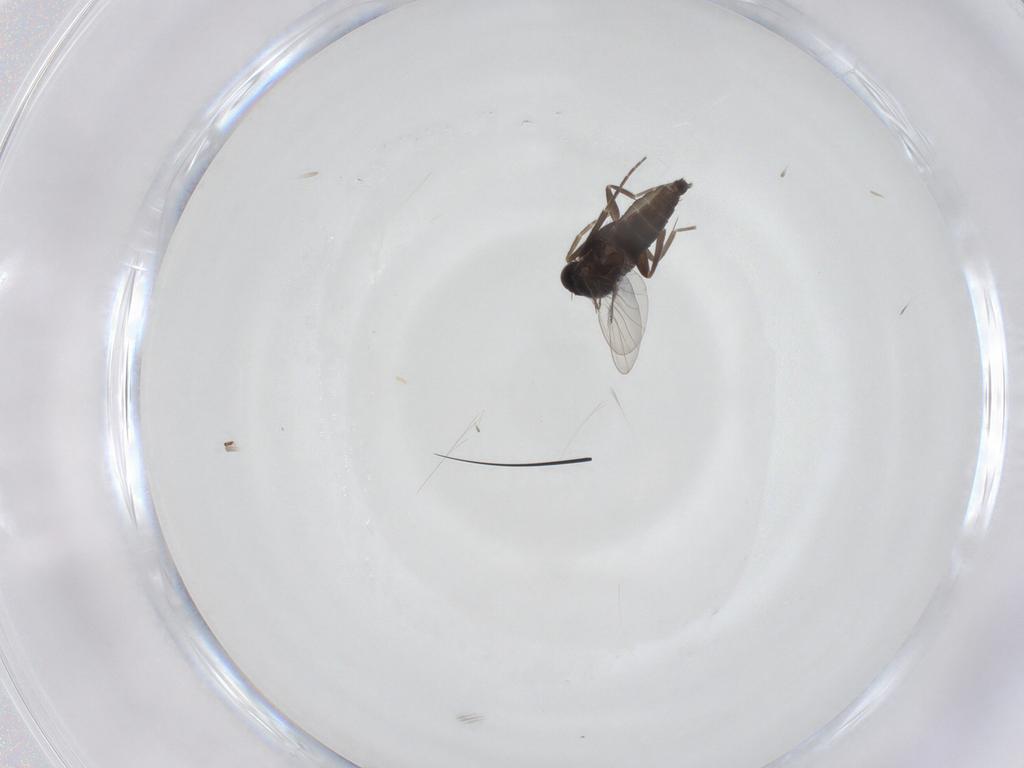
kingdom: Animalia
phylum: Arthropoda
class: Insecta
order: Diptera
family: Phoridae
